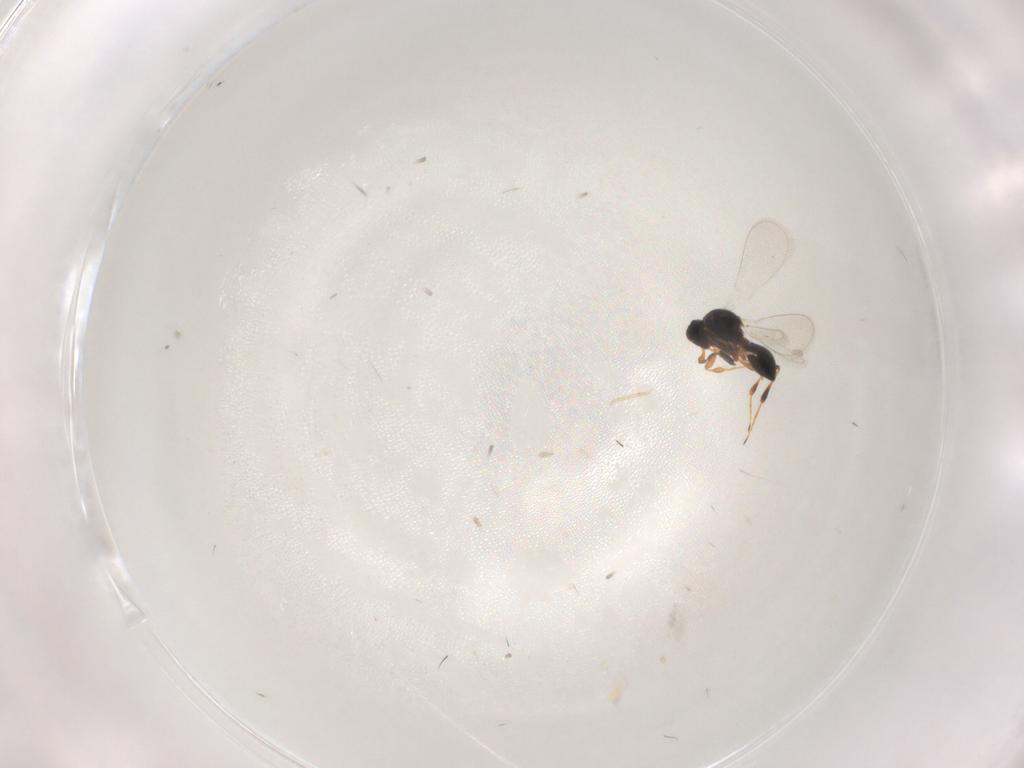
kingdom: Animalia
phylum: Arthropoda
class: Insecta
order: Hymenoptera
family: Platygastridae
